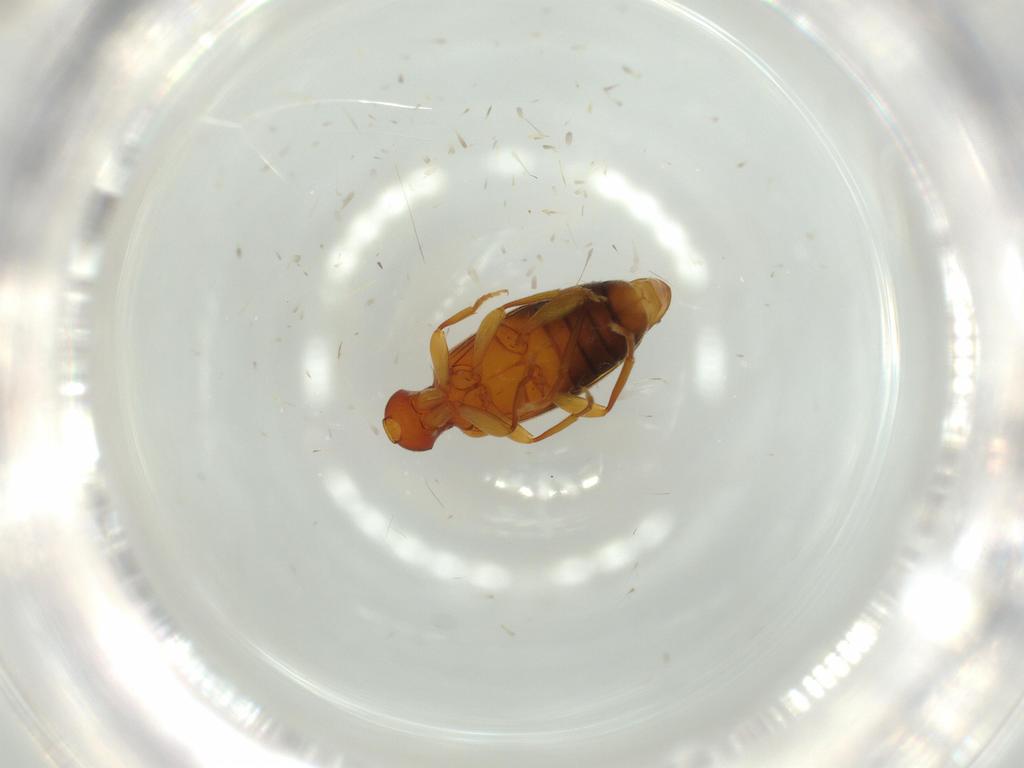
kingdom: Animalia
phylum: Arthropoda
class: Insecta
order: Coleoptera
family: Anthicidae
